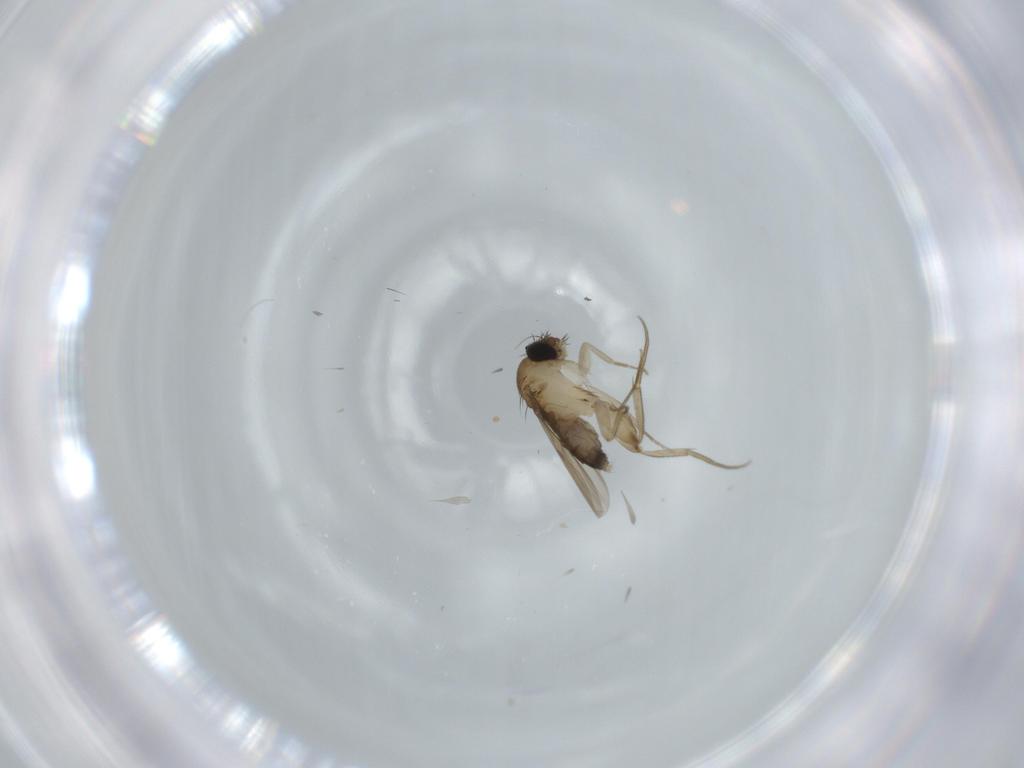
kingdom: Animalia
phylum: Arthropoda
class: Insecta
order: Diptera
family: Phoridae
